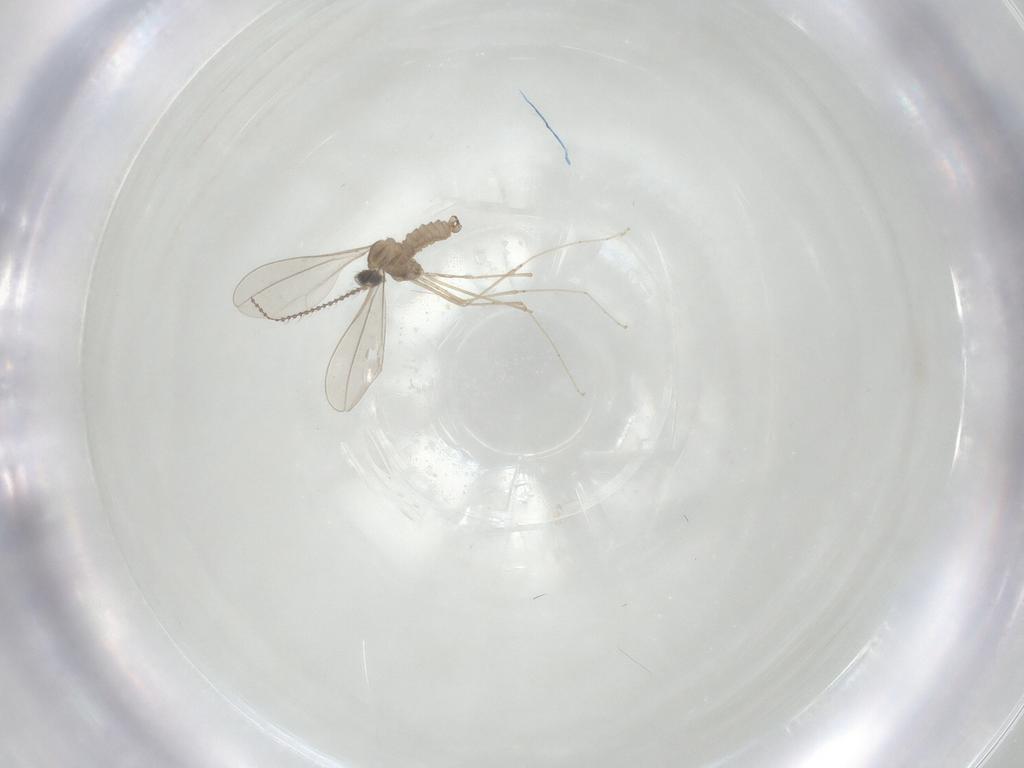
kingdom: Animalia
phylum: Arthropoda
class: Insecta
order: Diptera
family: Cecidomyiidae
